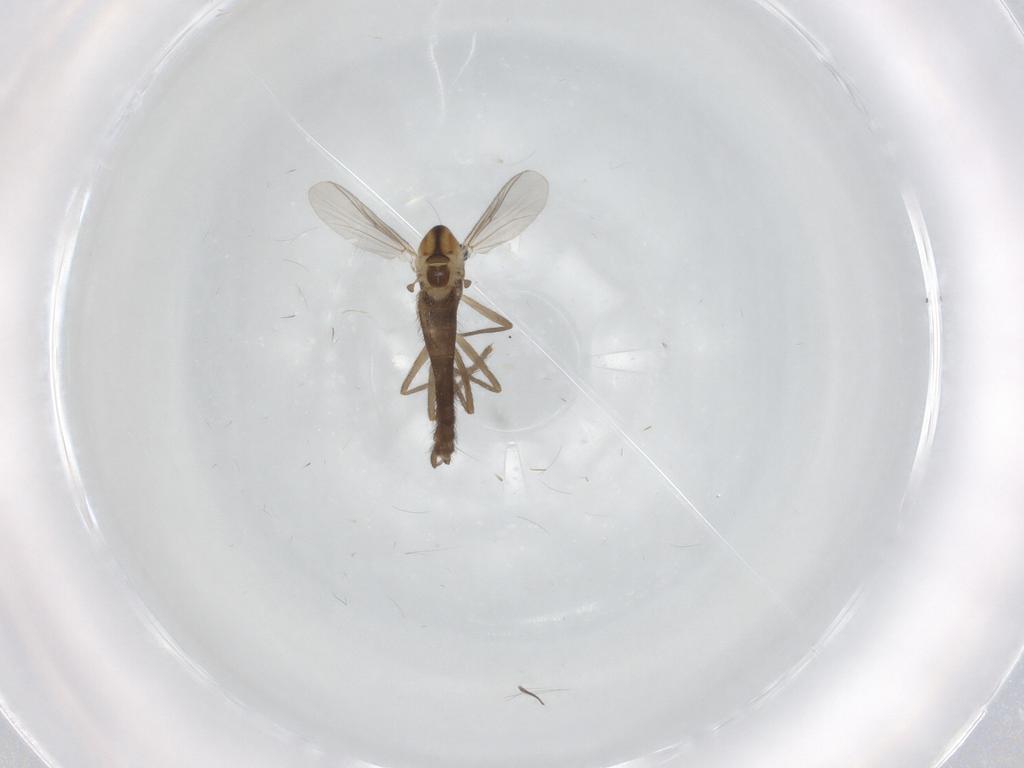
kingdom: Animalia
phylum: Arthropoda
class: Insecta
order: Diptera
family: Chironomidae
